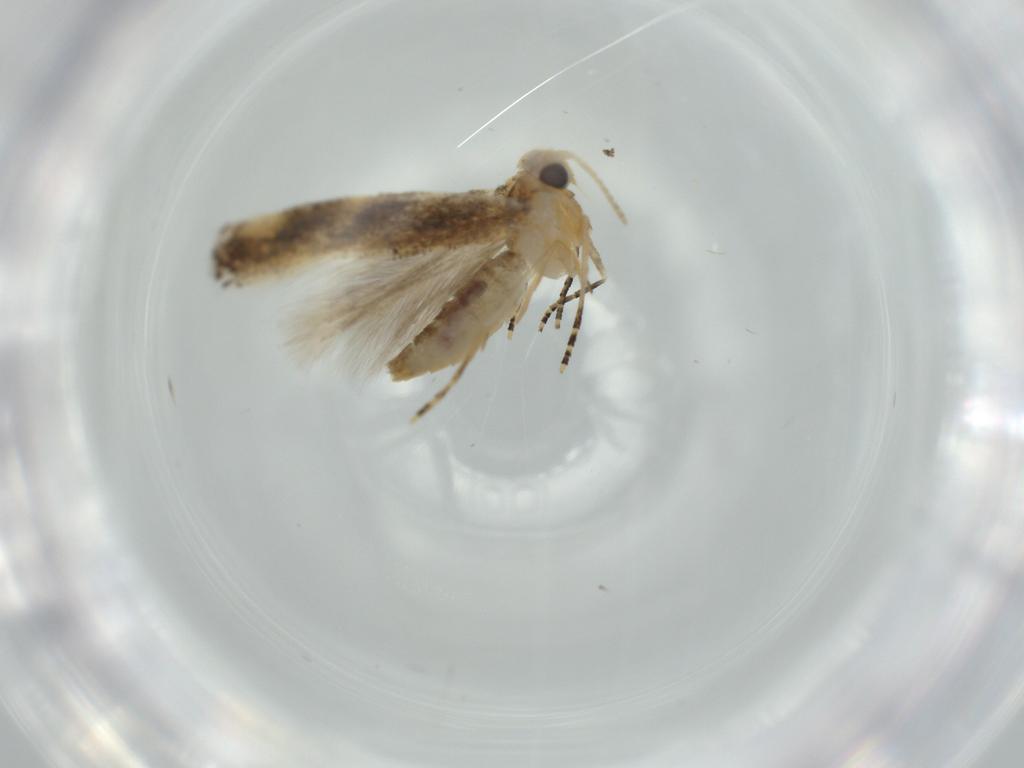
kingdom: Animalia
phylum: Arthropoda
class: Insecta
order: Lepidoptera
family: Bucculatricidae
